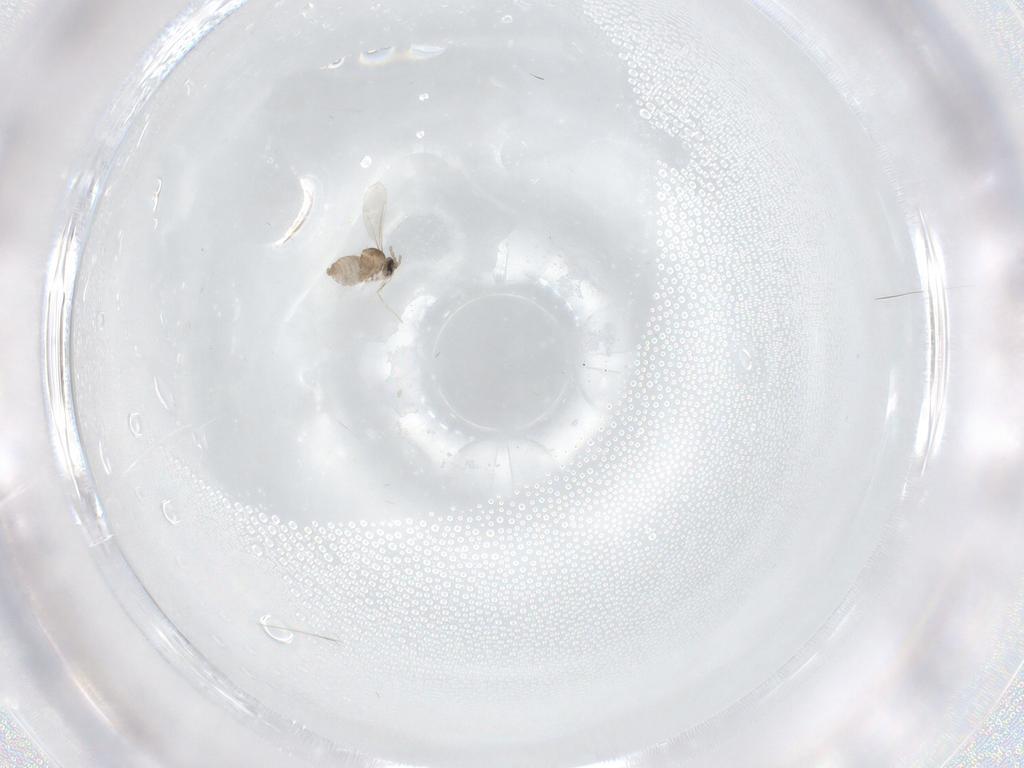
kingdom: Animalia
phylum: Arthropoda
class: Insecta
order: Diptera
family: Cecidomyiidae
